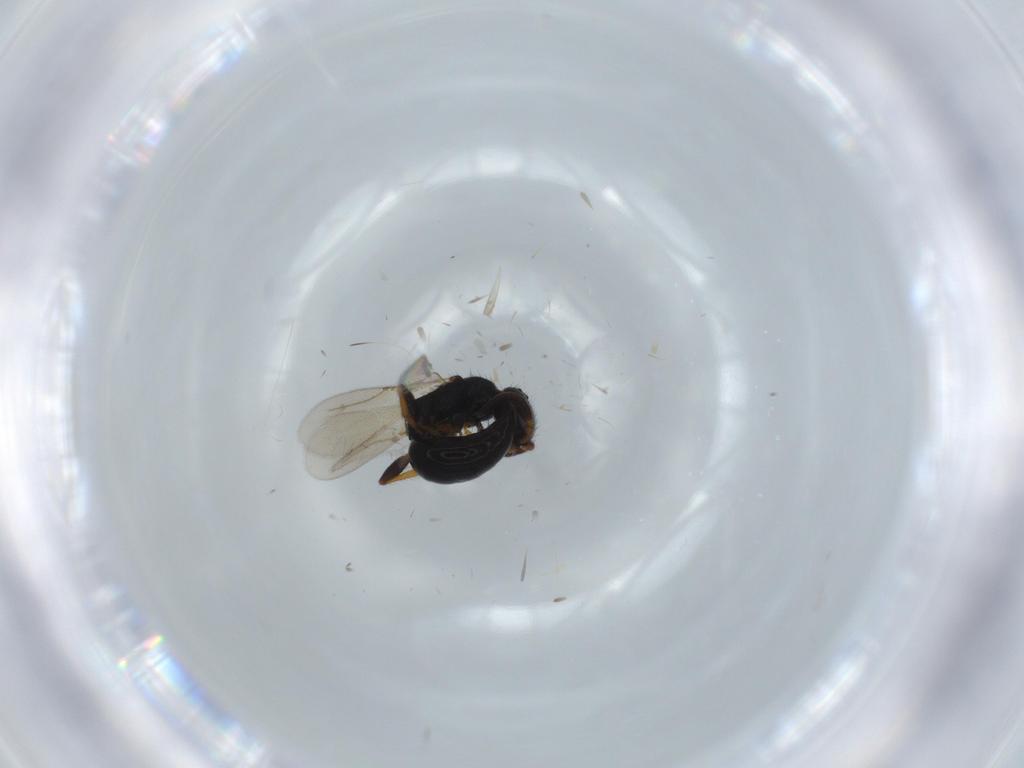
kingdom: Animalia
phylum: Arthropoda
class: Insecta
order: Hymenoptera
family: Bethylidae
